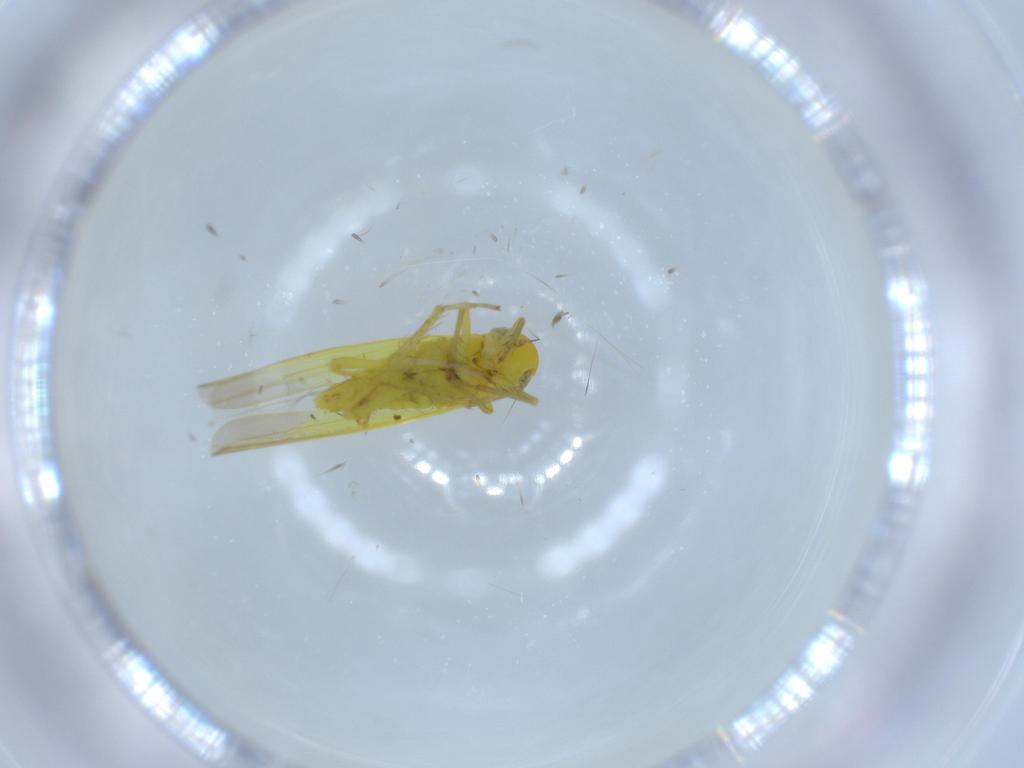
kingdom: Animalia
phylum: Arthropoda
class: Insecta
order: Hemiptera
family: Cicadellidae
